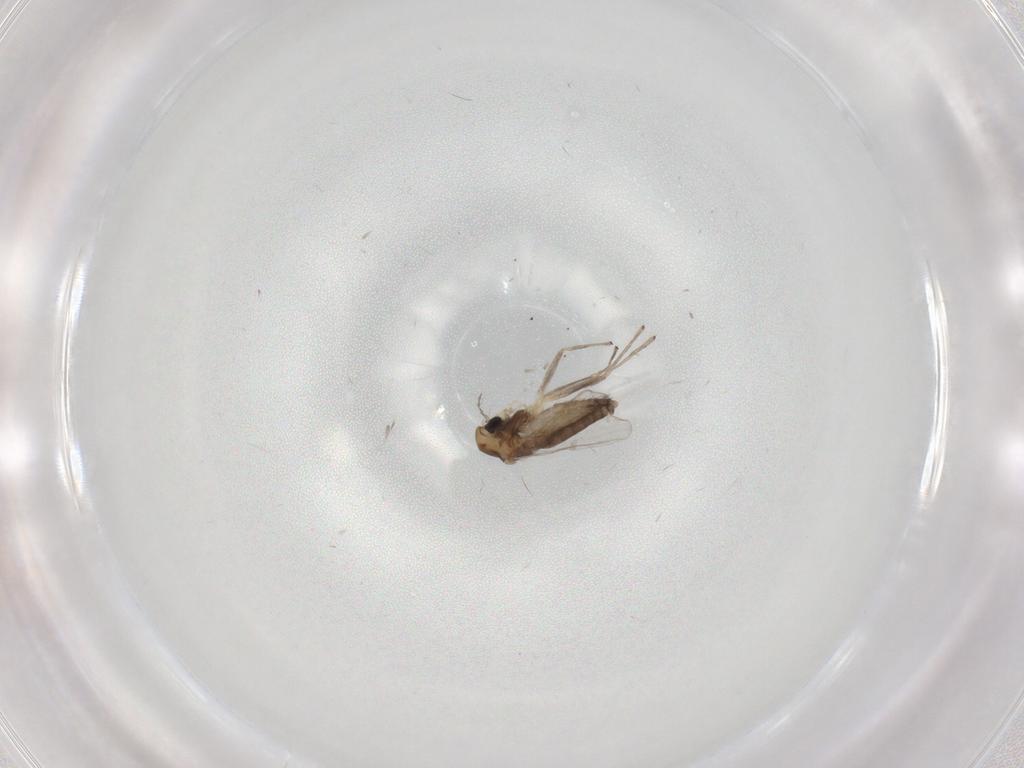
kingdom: Animalia
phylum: Arthropoda
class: Insecta
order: Diptera
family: Chironomidae
